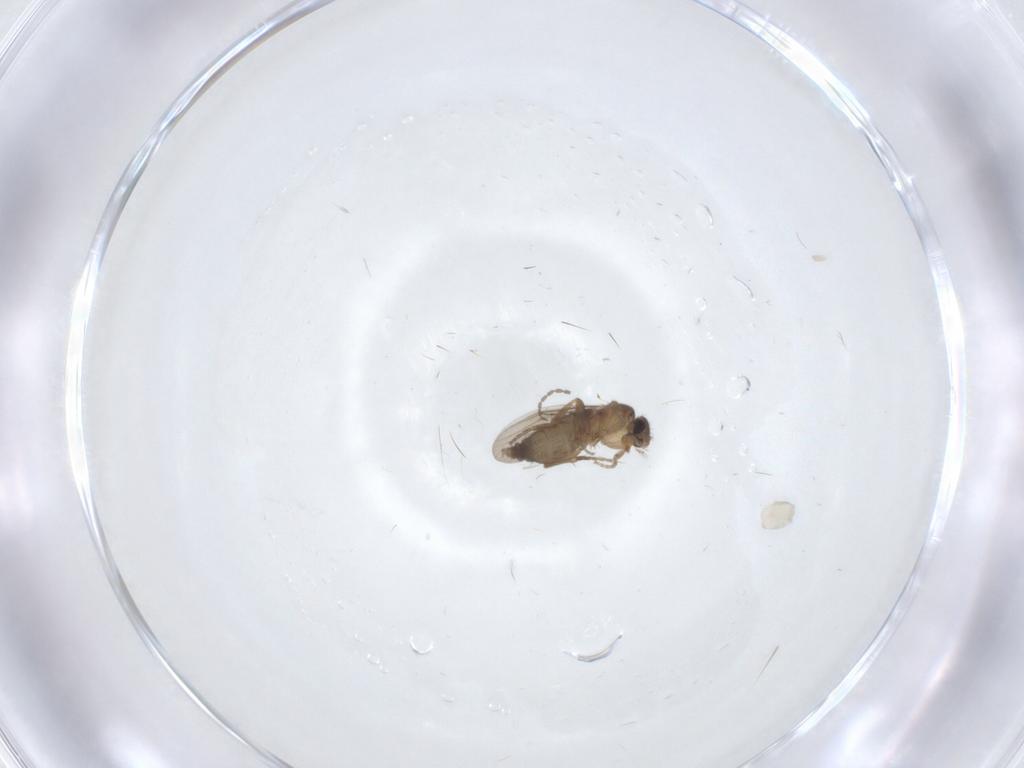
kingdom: Animalia
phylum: Arthropoda
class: Insecta
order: Diptera
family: Phoridae
